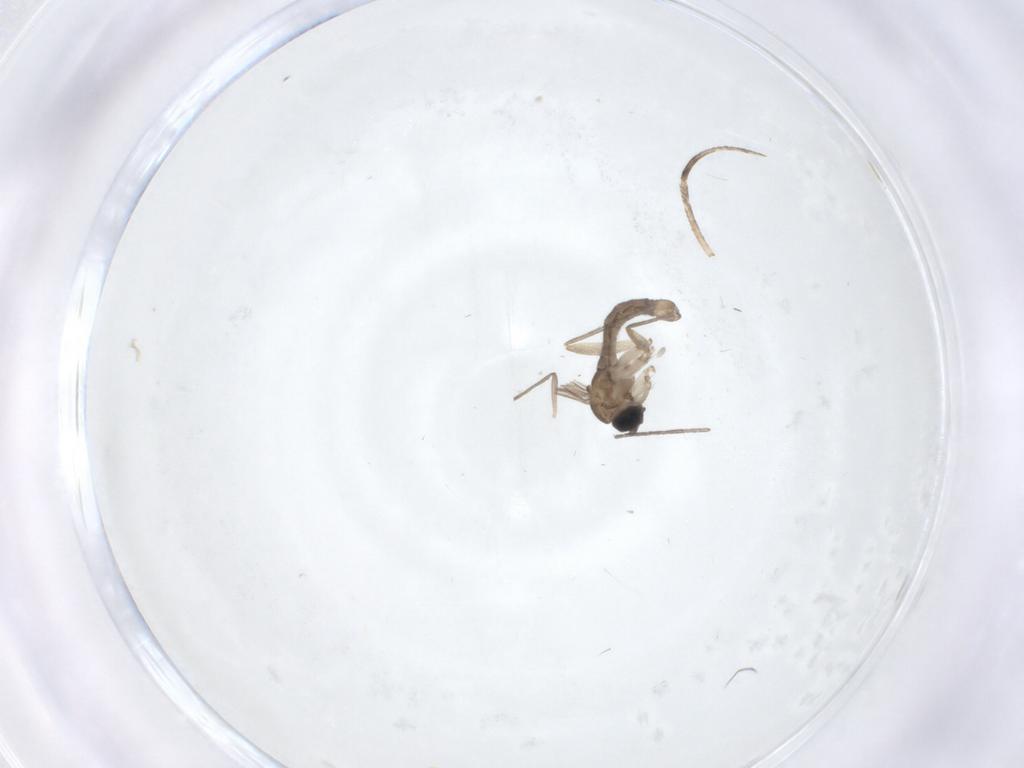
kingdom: Animalia
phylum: Arthropoda
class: Insecta
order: Diptera
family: Sciaridae
